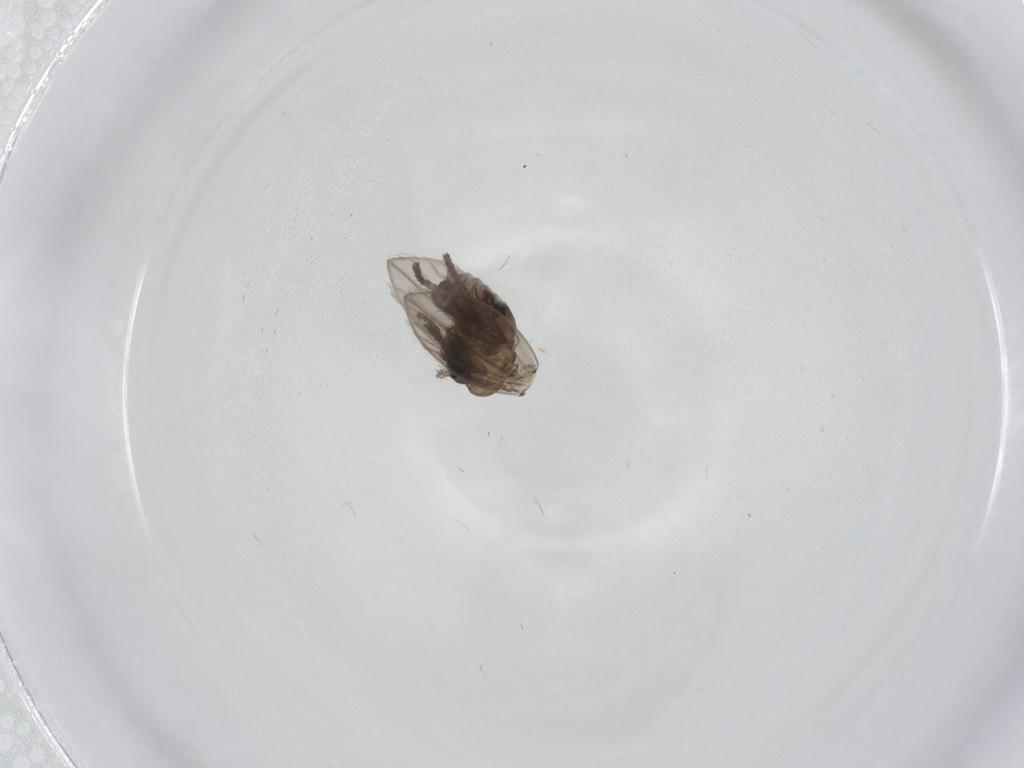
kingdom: Animalia
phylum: Arthropoda
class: Insecta
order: Diptera
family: Psychodidae
